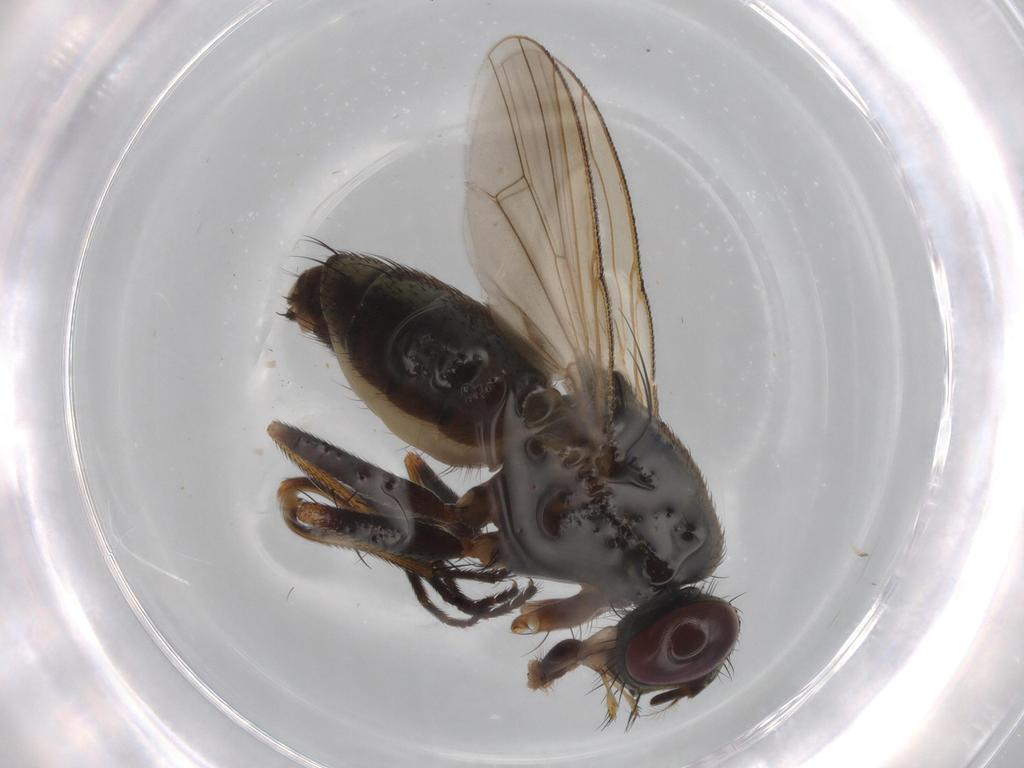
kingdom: Animalia
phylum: Arthropoda
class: Insecta
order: Diptera
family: Muscidae
